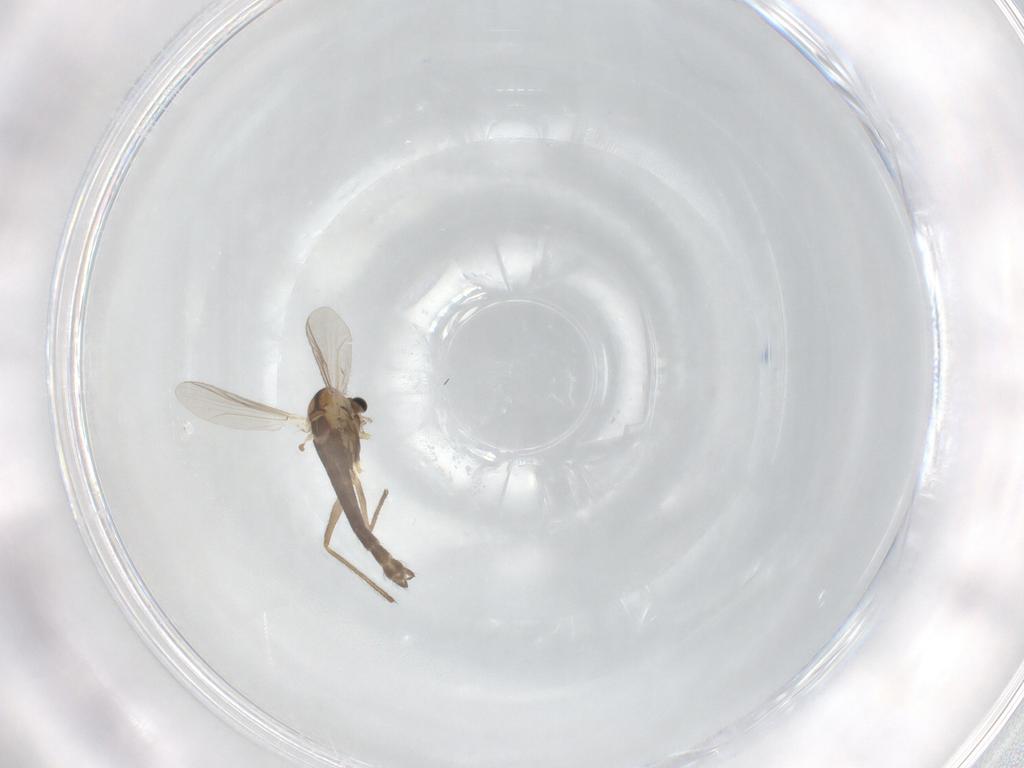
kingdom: Animalia
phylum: Arthropoda
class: Insecta
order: Diptera
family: Chironomidae
